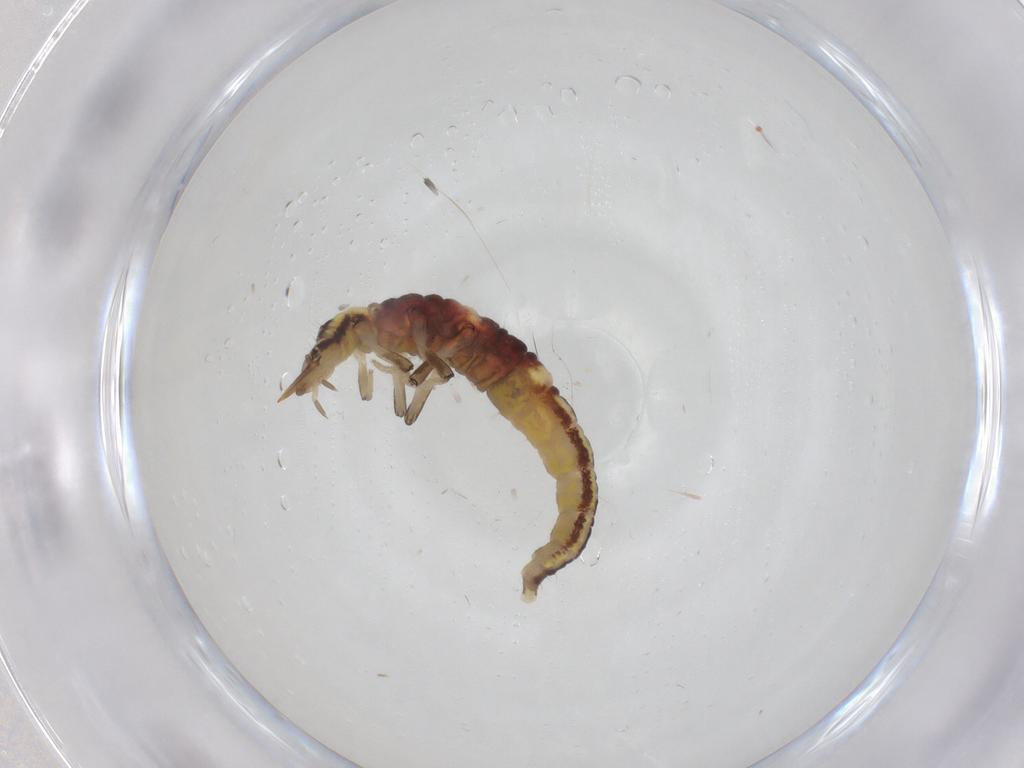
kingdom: Animalia
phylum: Arthropoda
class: Insecta
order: Neuroptera
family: Hemerobiidae
